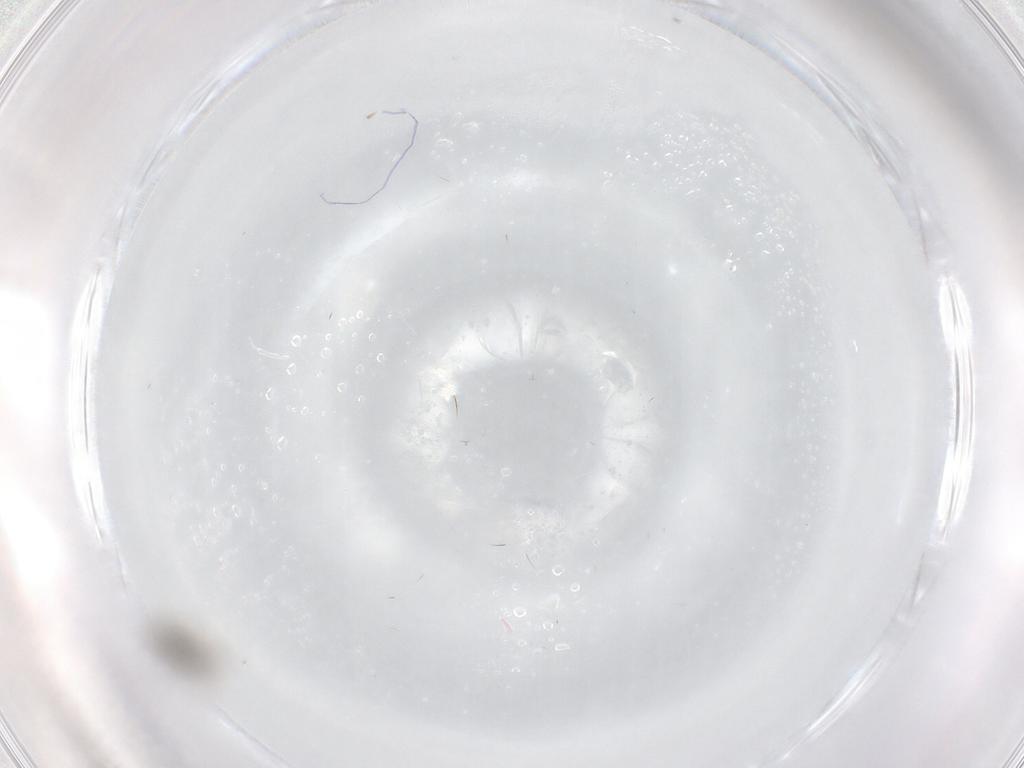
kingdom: Animalia
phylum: Arthropoda
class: Insecta
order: Diptera
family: Chironomidae
